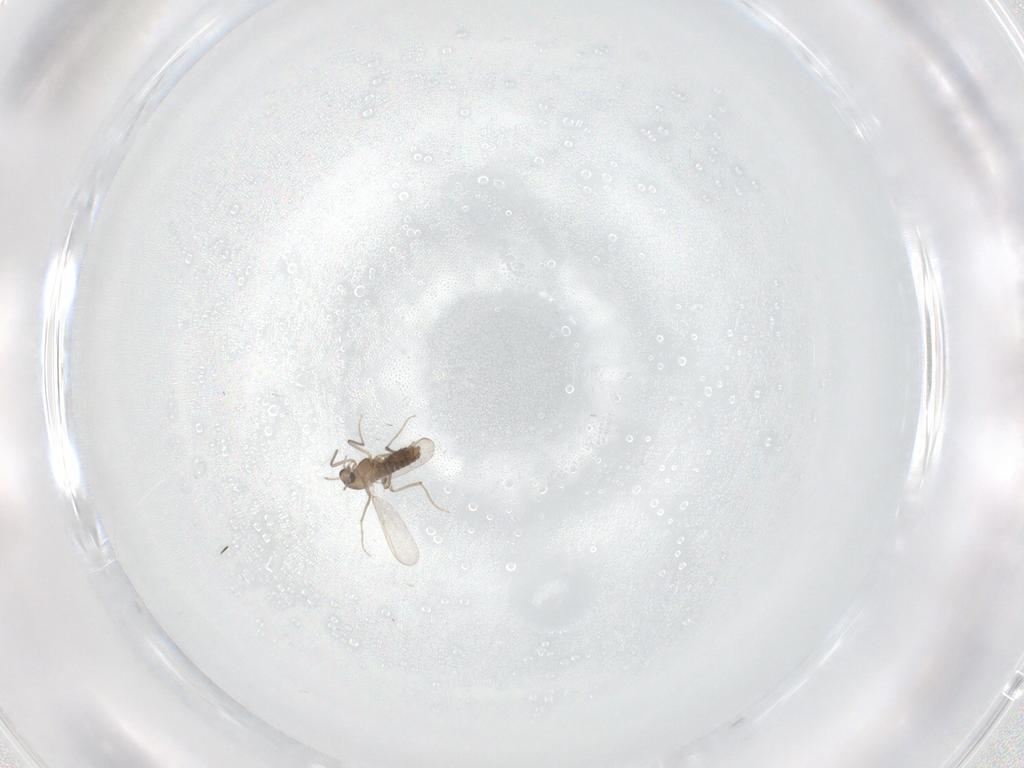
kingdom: Animalia
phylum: Arthropoda
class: Insecta
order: Diptera
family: Chironomidae
